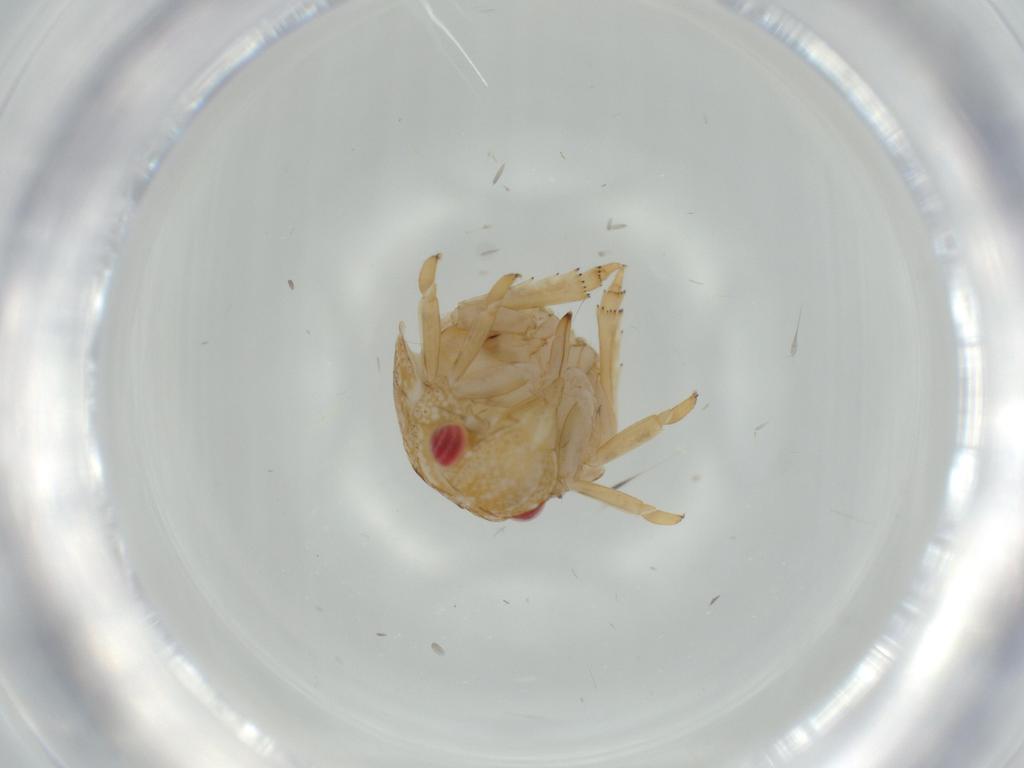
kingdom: Animalia
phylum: Arthropoda
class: Insecta
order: Hemiptera
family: Acanaloniidae
